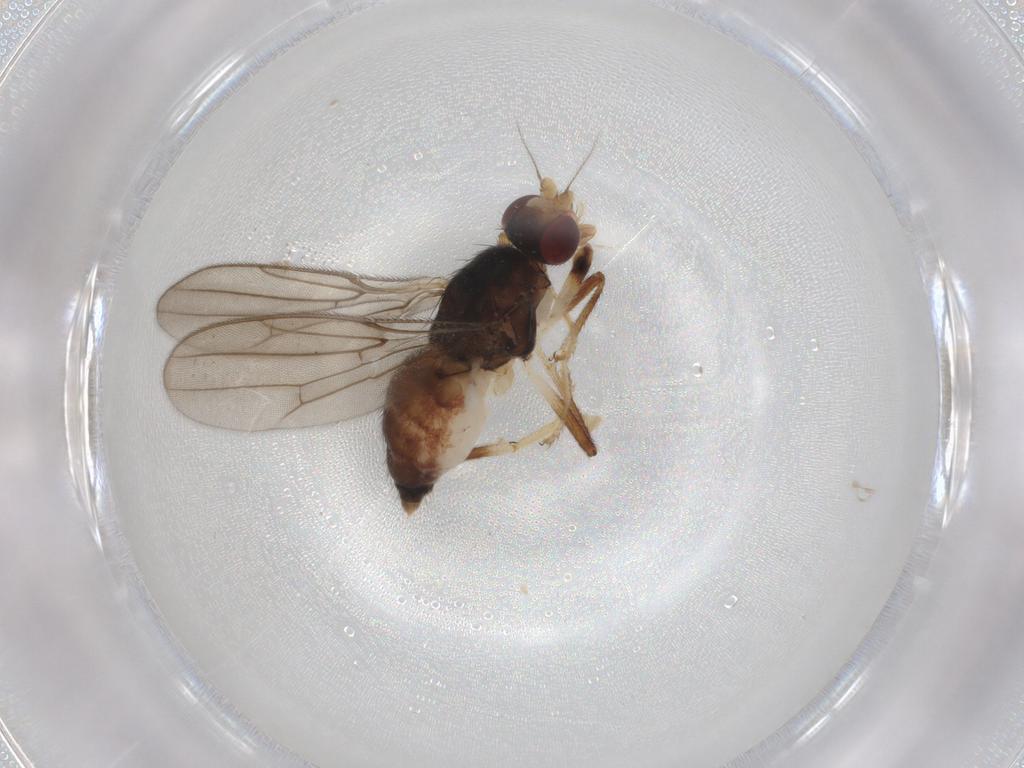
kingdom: Animalia
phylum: Arthropoda
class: Insecta
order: Diptera
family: Chloropidae
